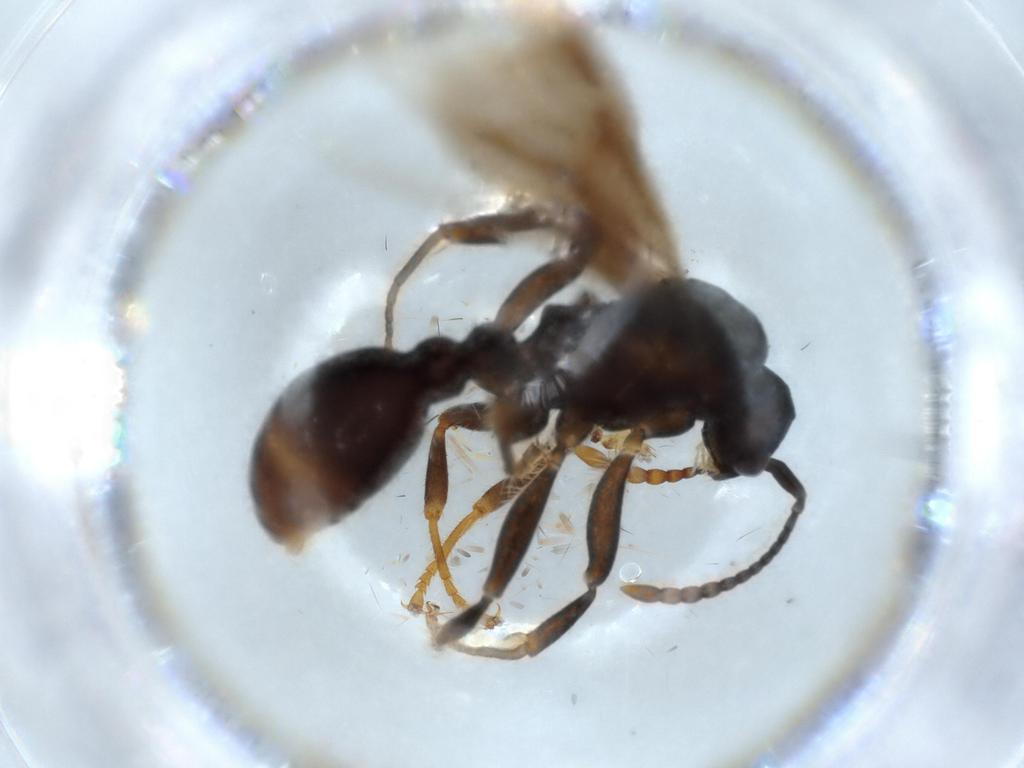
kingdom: Animalia
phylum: Arthropoda
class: Insecta
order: Hymenoptera
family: Formicidae
